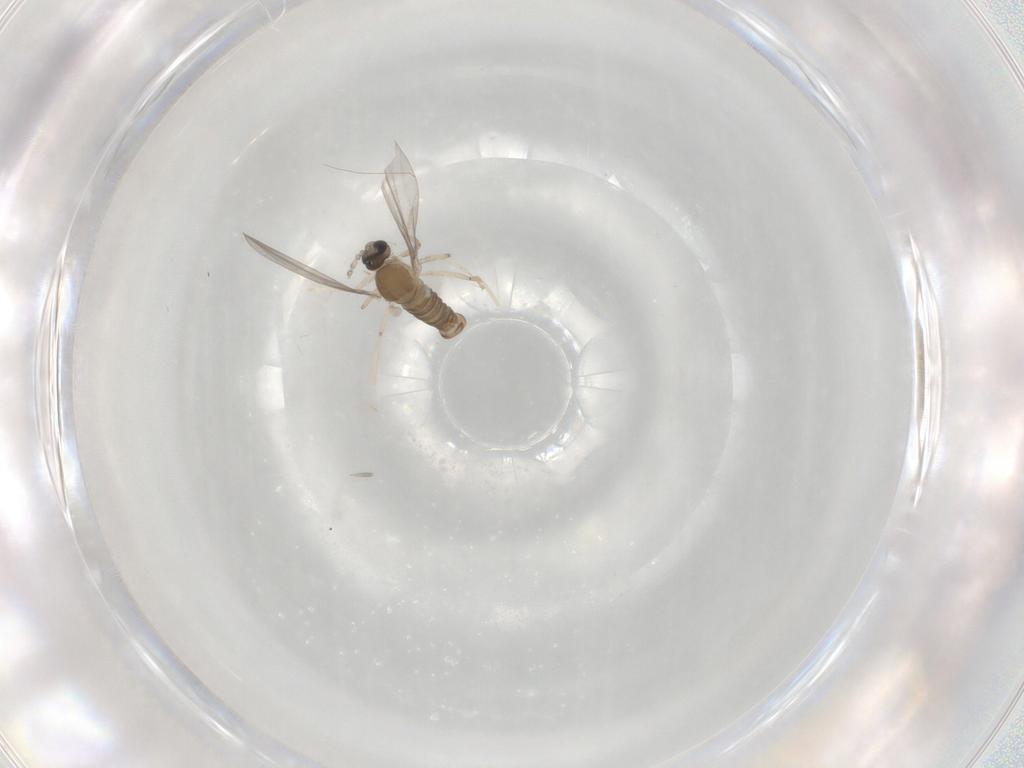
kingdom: Animalia
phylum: Arthropoda
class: Insecta
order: Diptera
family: Cecidomyiidae
